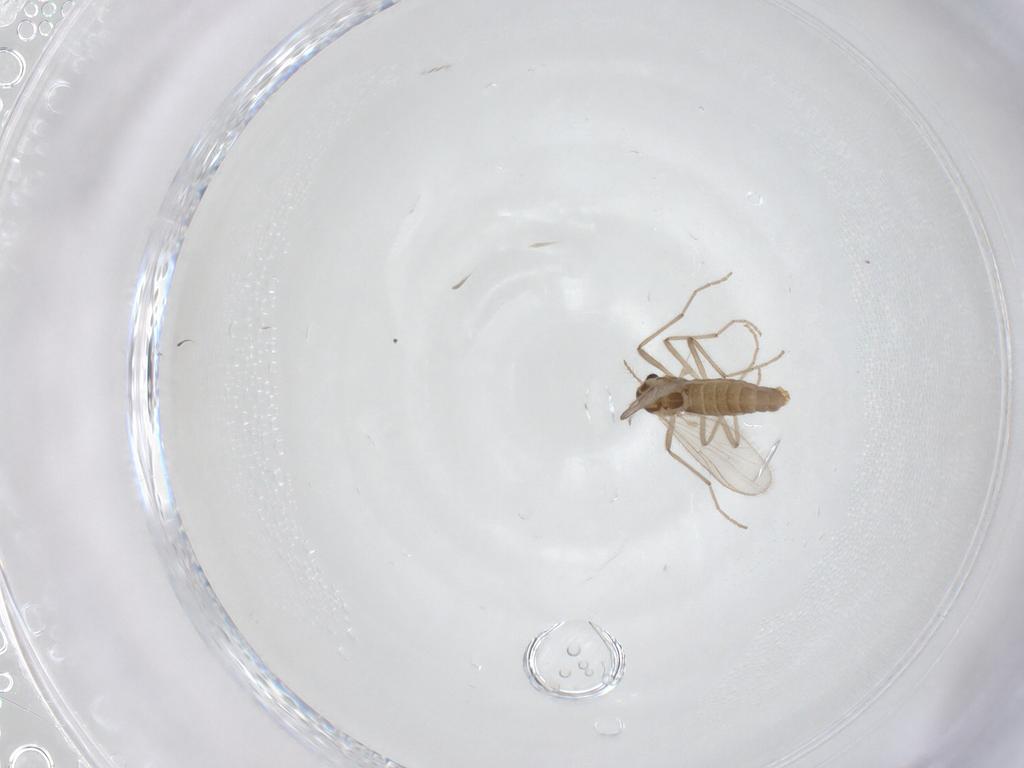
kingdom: Animalia
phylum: Arthropoda
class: Insecta
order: Diptera
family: Chironomidae
